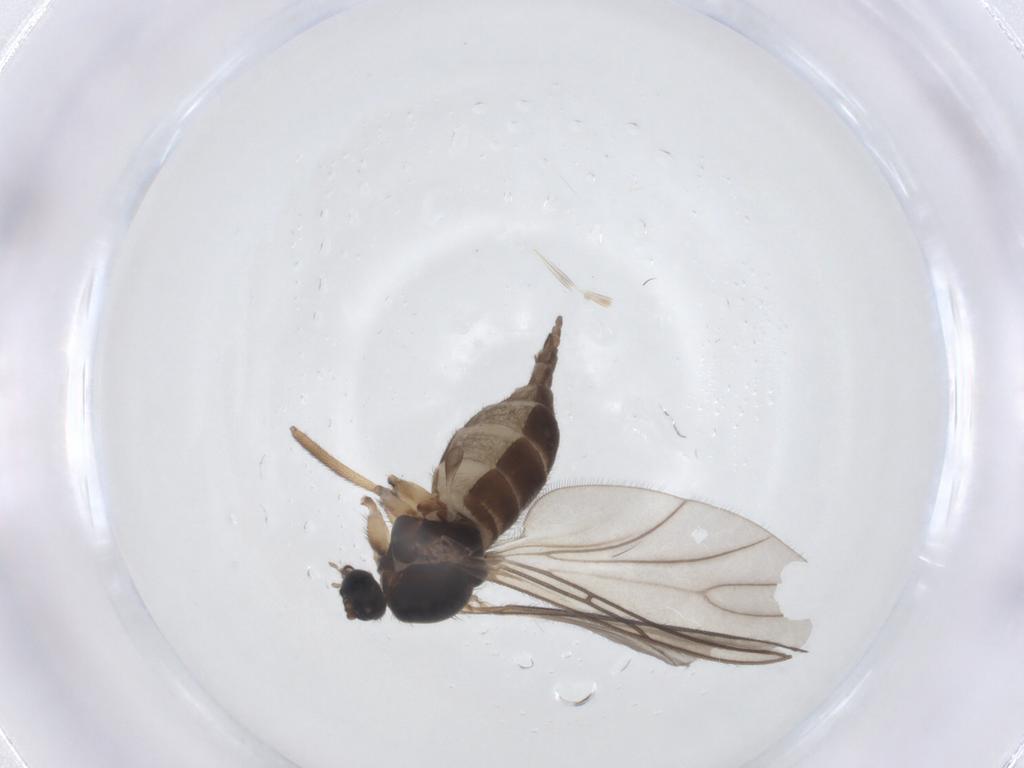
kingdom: Animalia
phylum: Arthropoda
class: Insecta
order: Diptera
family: Sciaridae
